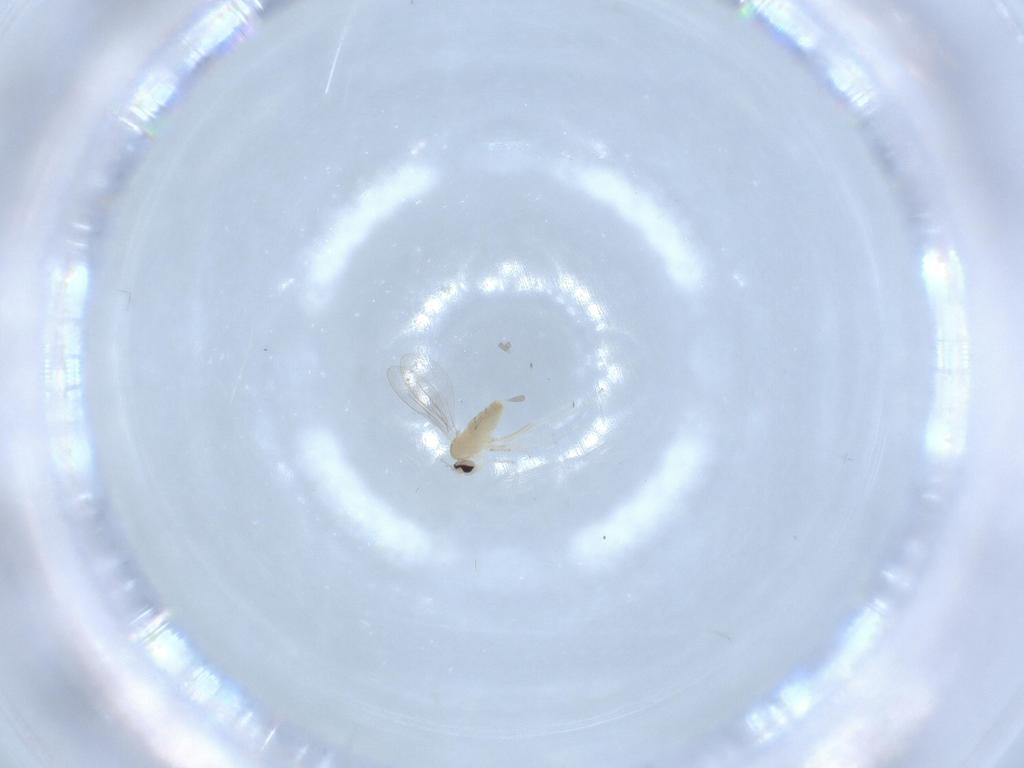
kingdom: Animalia
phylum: Arthropoda
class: Insecta
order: Diptera
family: Cecidomyiidae
